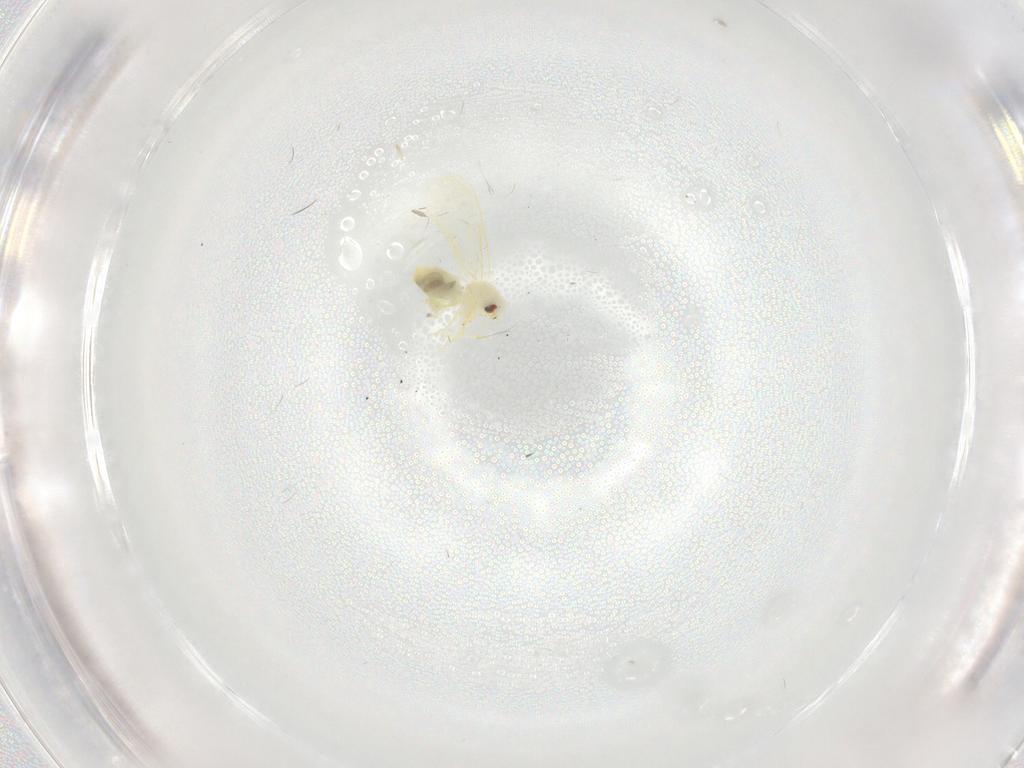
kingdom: Animalia
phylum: Arthropoda
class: Insecta
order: Hemiptera
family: Aleyrodidae
